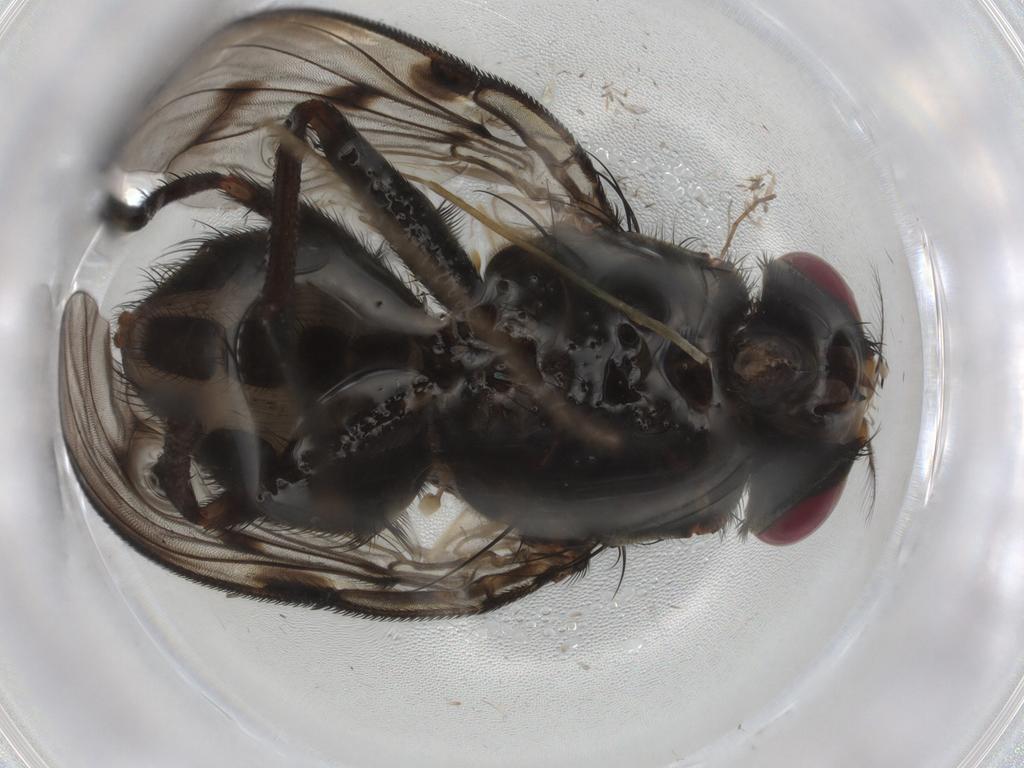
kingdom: Animalia
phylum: Arthropoda
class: Insecta
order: Diptera
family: Muscidae
